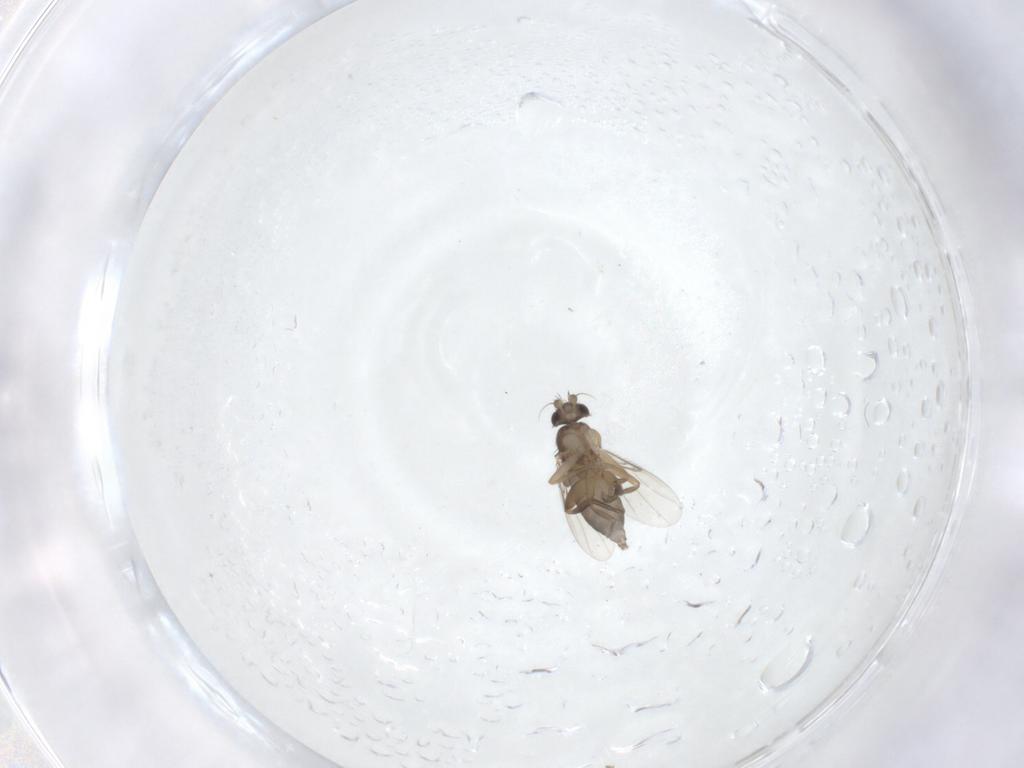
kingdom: Animalia
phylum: Arthropoda
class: Insecta
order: Diptera
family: Phoridae
